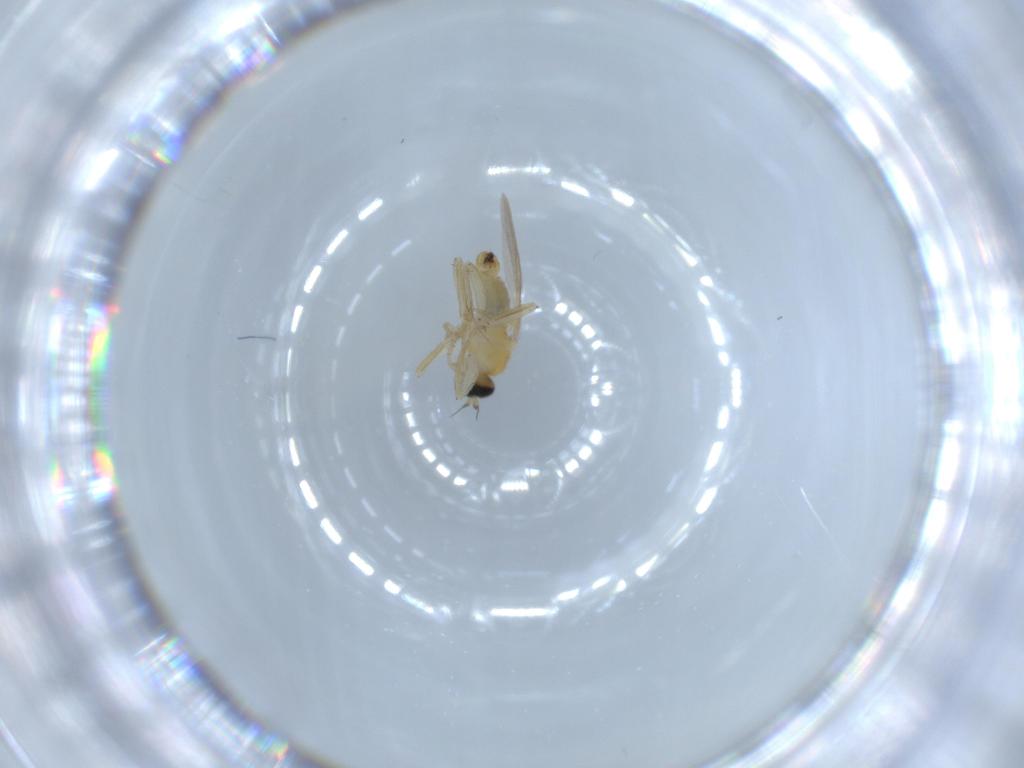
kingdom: Animalia
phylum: Arthropoda
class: Insecta
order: Diptera
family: Hybotidae
